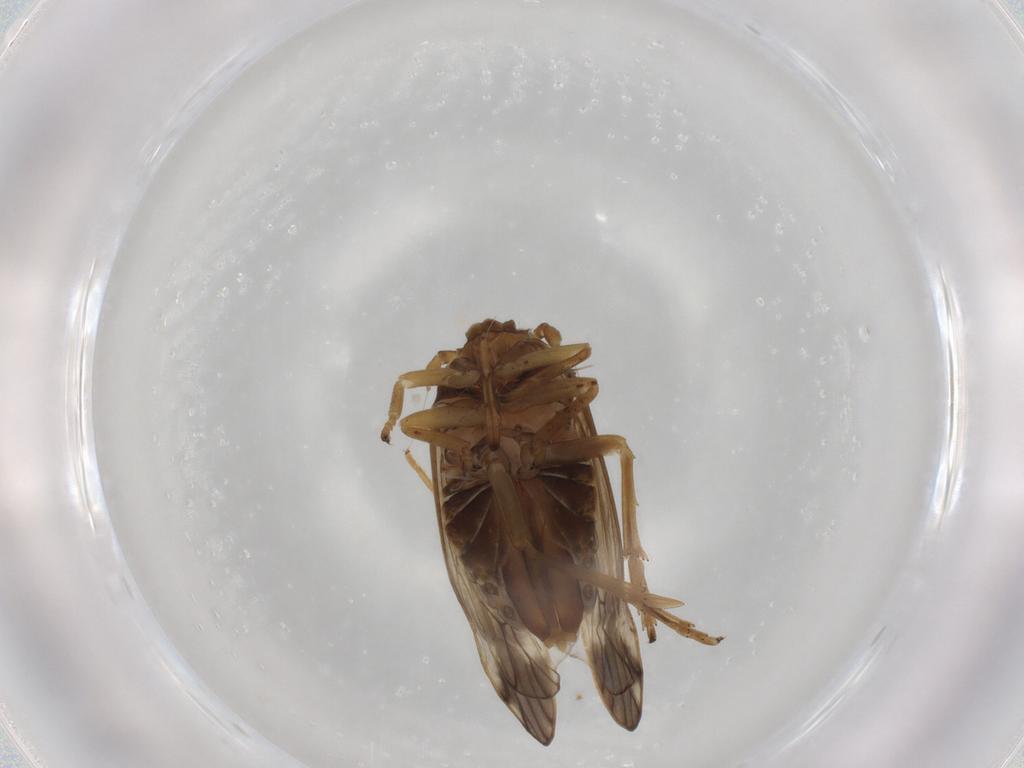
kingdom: Animalia
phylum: Arthropoda
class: Insecta
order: Hemiptera
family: Delphacidae
